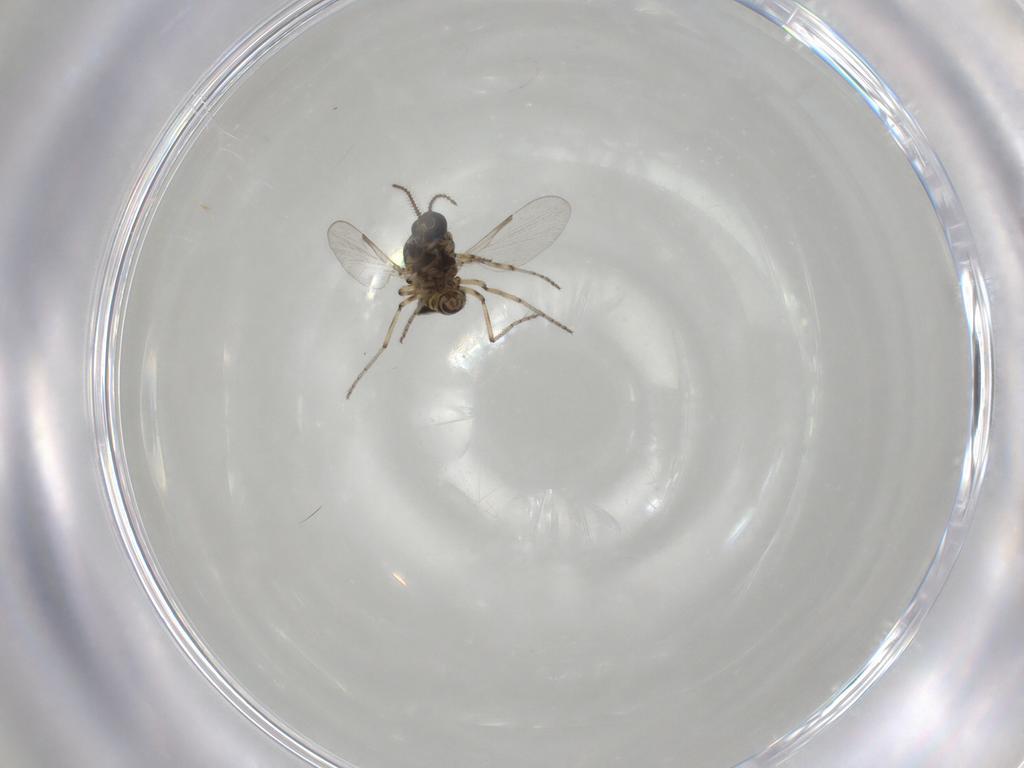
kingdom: Animalia
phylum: Arthropoda
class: Insecta
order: Diptera
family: Ceratopogonidae
